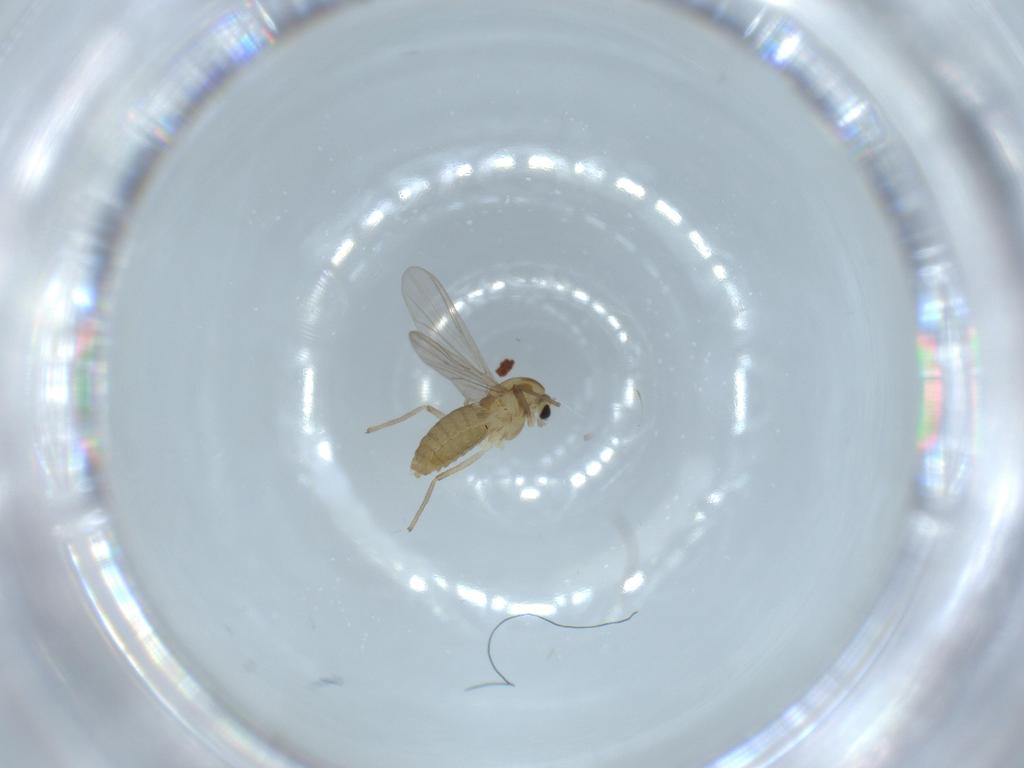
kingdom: Animalia
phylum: Arthropoda
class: Insecta
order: Diptera
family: Chironomidae
